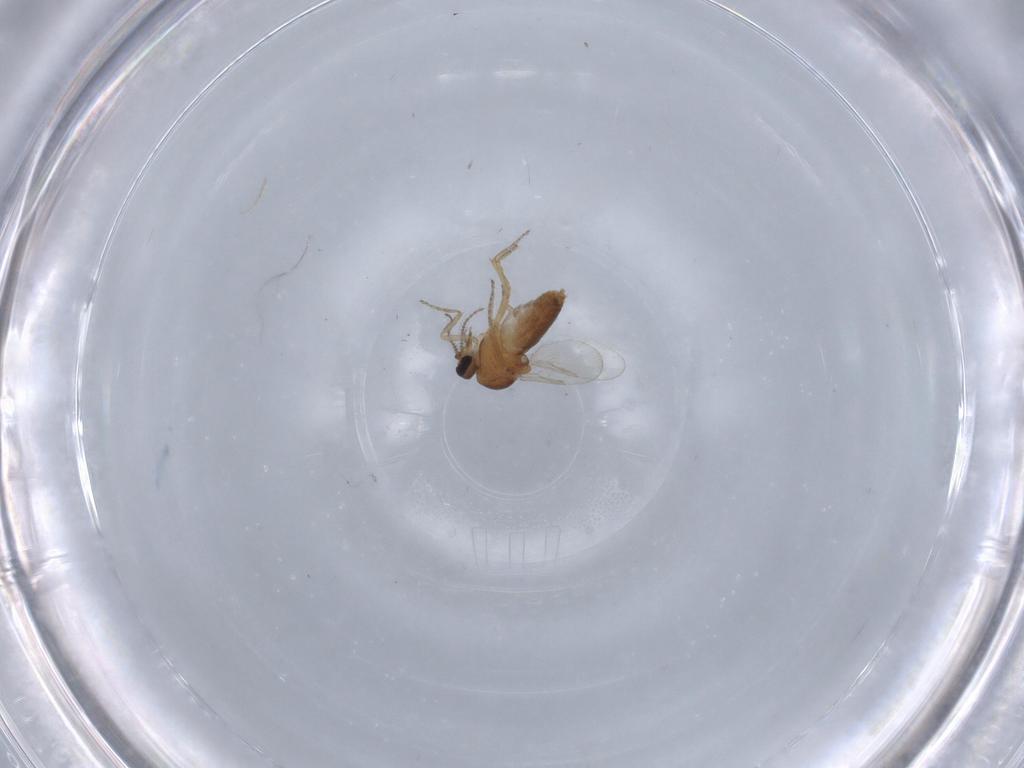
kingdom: Animalia
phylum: Arthropoda
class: Insecta
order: Diptera
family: Ceratopogonidae
